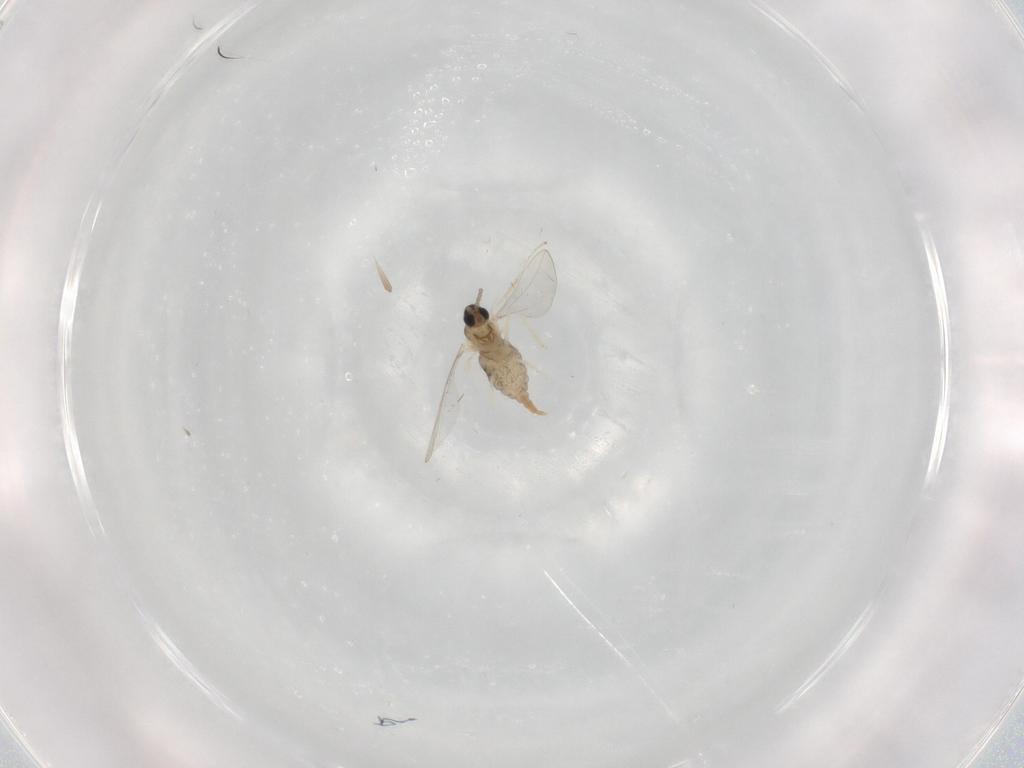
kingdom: Animalia
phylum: Arthropoda
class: Insecta
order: Diptera
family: Cecidomyiidae
